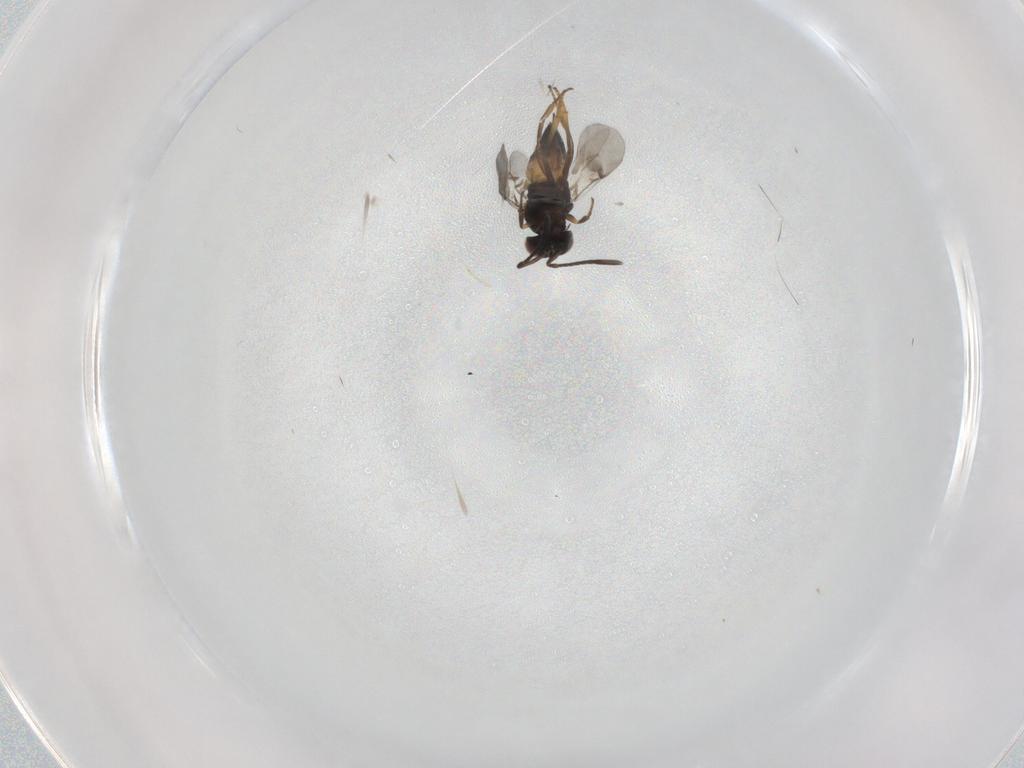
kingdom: Animalia
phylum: Arthropoda
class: Insecta
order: Hymenoptera
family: Encyrtidae
